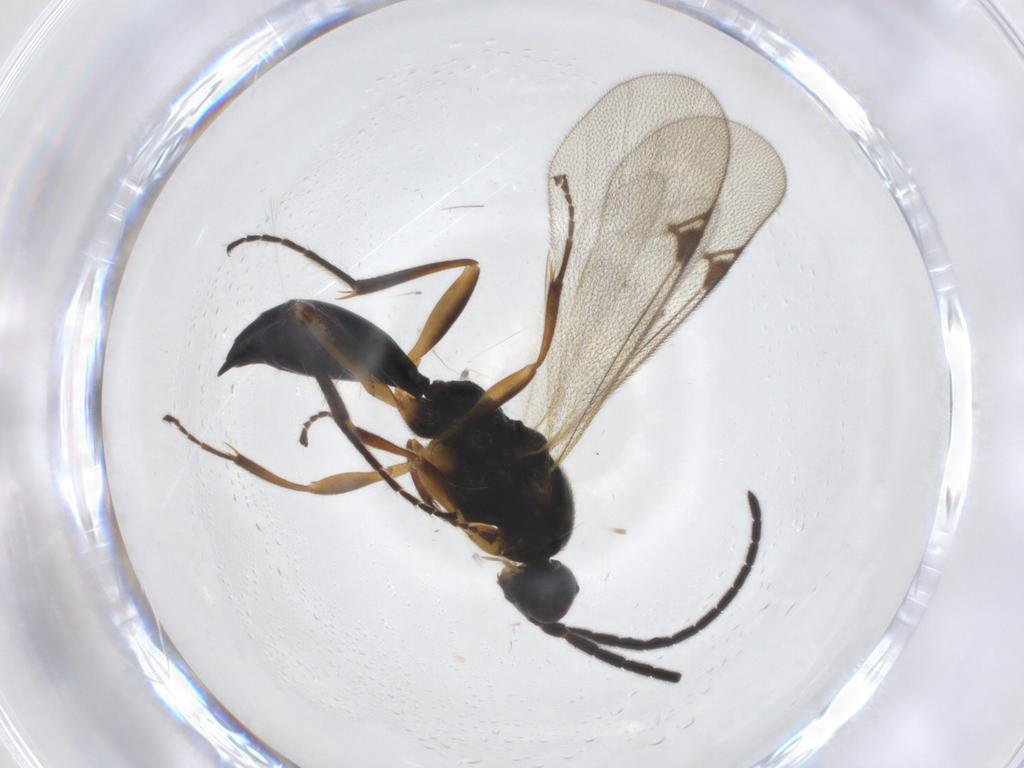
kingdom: Animalia
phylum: Arthropoda
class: Insecta
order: Hymenoptera
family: Proctotrupidae
